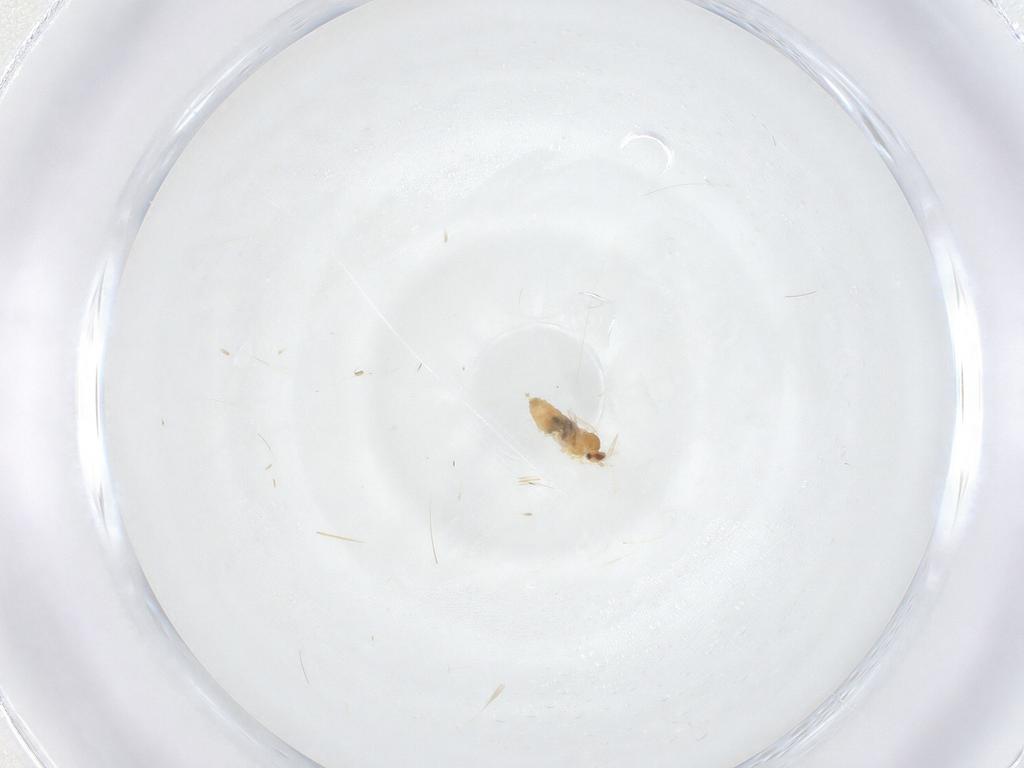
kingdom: Animalia
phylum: Arthropoda
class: Insecta
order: Diptera
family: Cecidomyiidae
